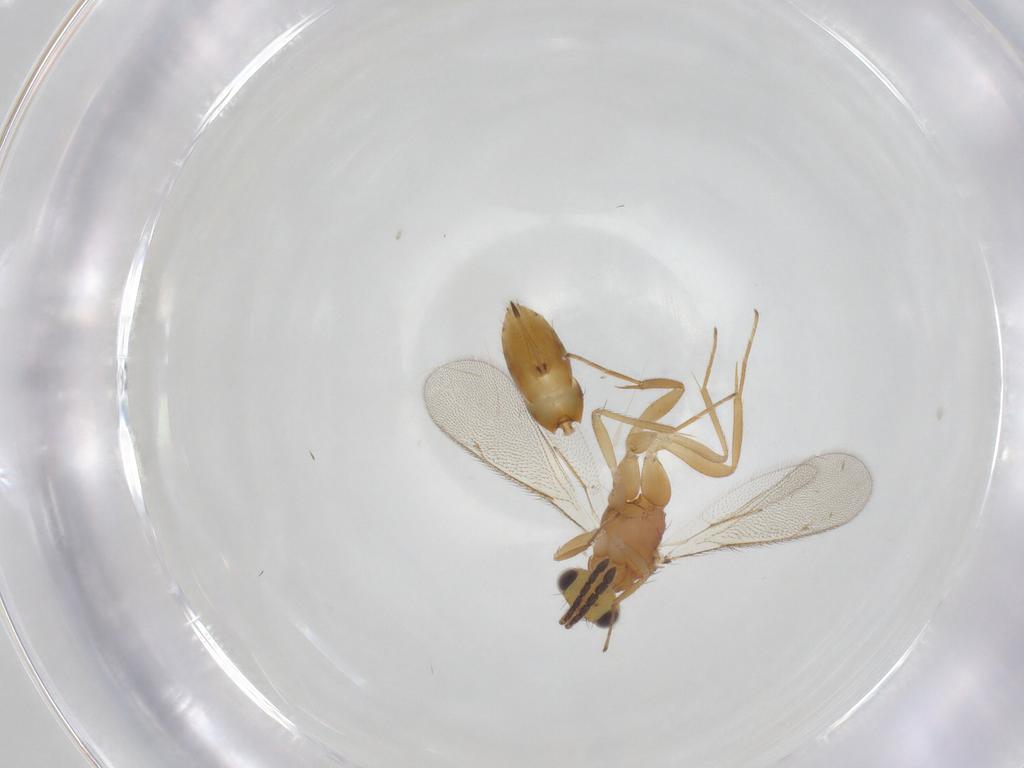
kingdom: Animalia
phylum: Arthropoda
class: Insecta
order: Hymenoptera
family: Eulophidae
